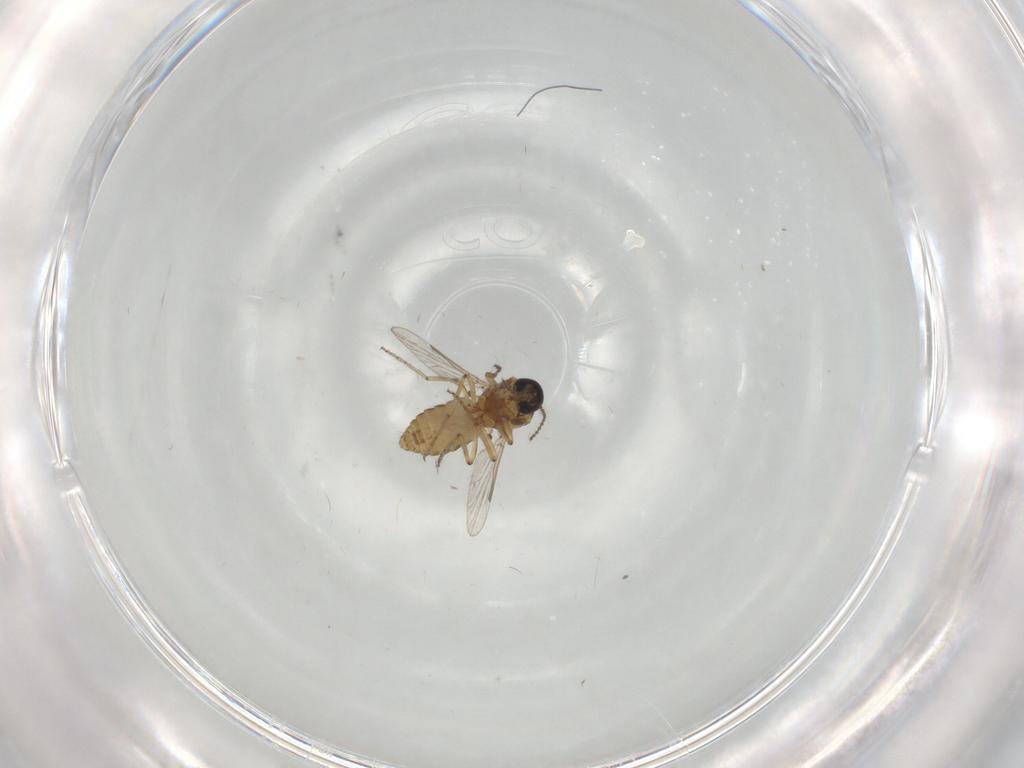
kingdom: Animalia
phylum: Arthropoda
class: Insecta
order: Diptera
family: Ceratopogonidae
